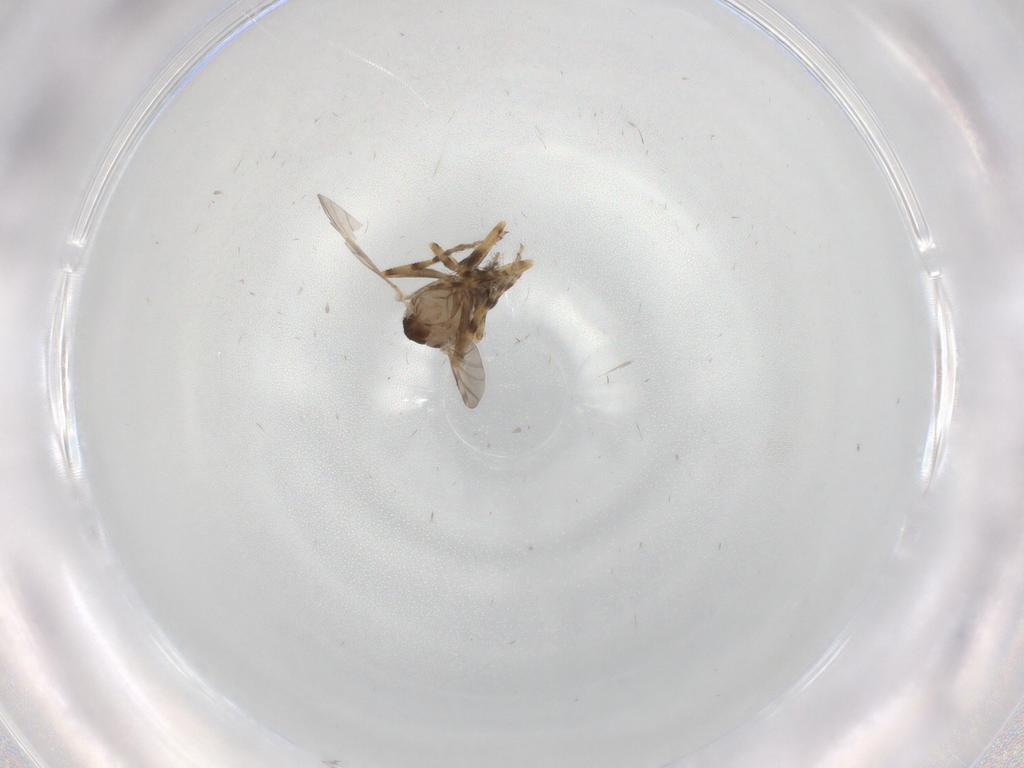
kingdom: Animalia
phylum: Arthropoda
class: Insecta
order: Diptera
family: Ceratopogonidae
